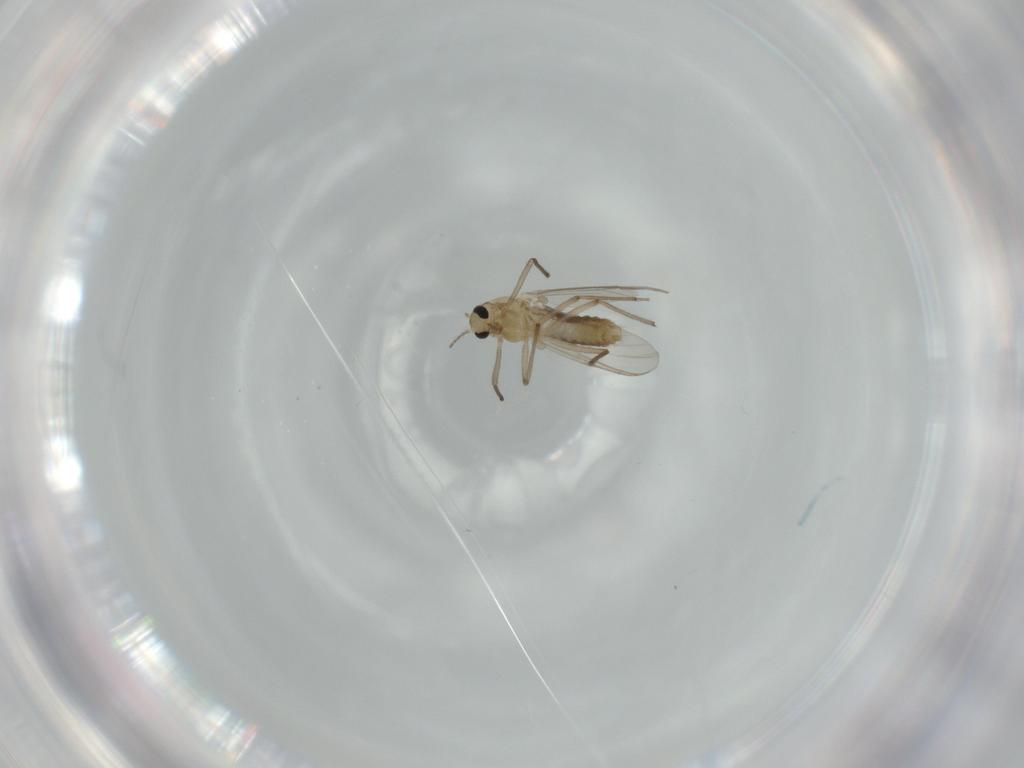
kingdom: Animalia
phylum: Arthropoda
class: Insecta
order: Diptera
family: Chironomidae
